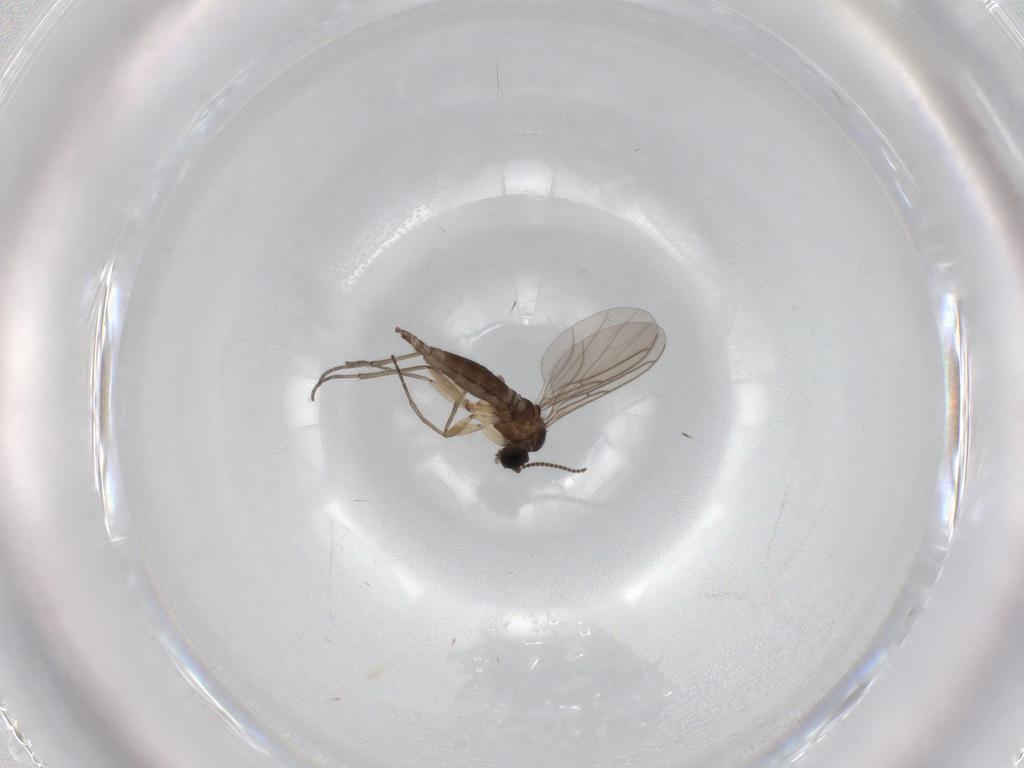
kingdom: Animalia
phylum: Arthropoda
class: Insecta
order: Diptera
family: Sciaridae
